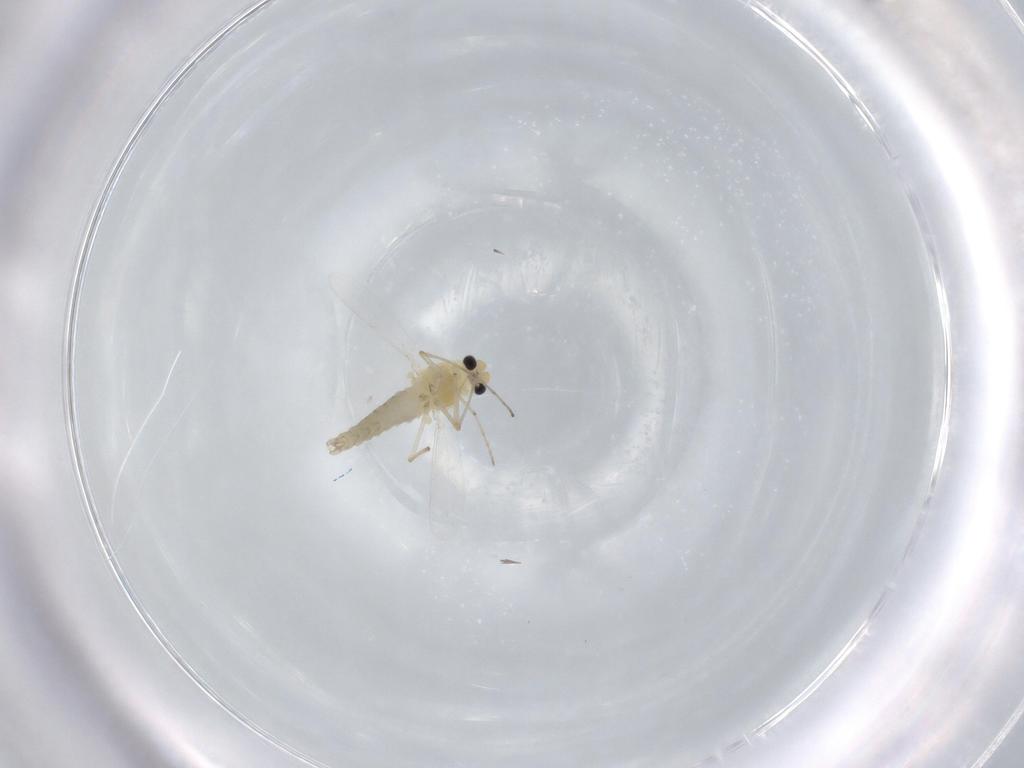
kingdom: Animalia
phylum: Arthropoda
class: Insecta
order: Diptera
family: Chironomidae
